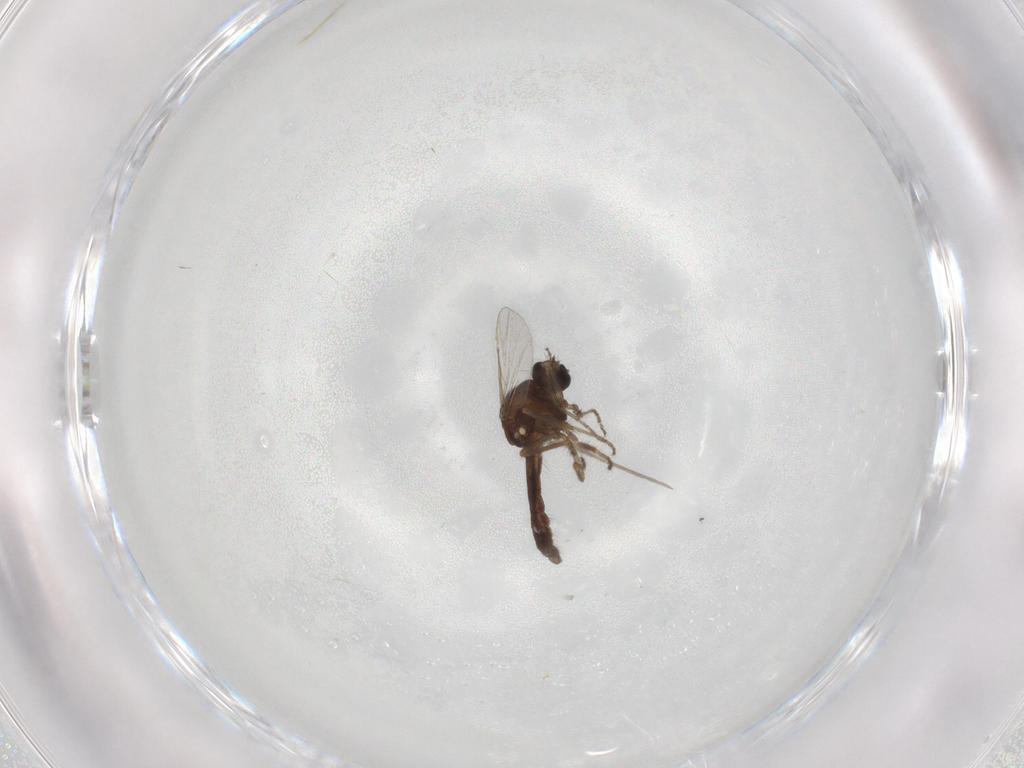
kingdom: Animalia
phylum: Arthropoda
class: Insecta
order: Diptera
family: Ceratopogonidae
